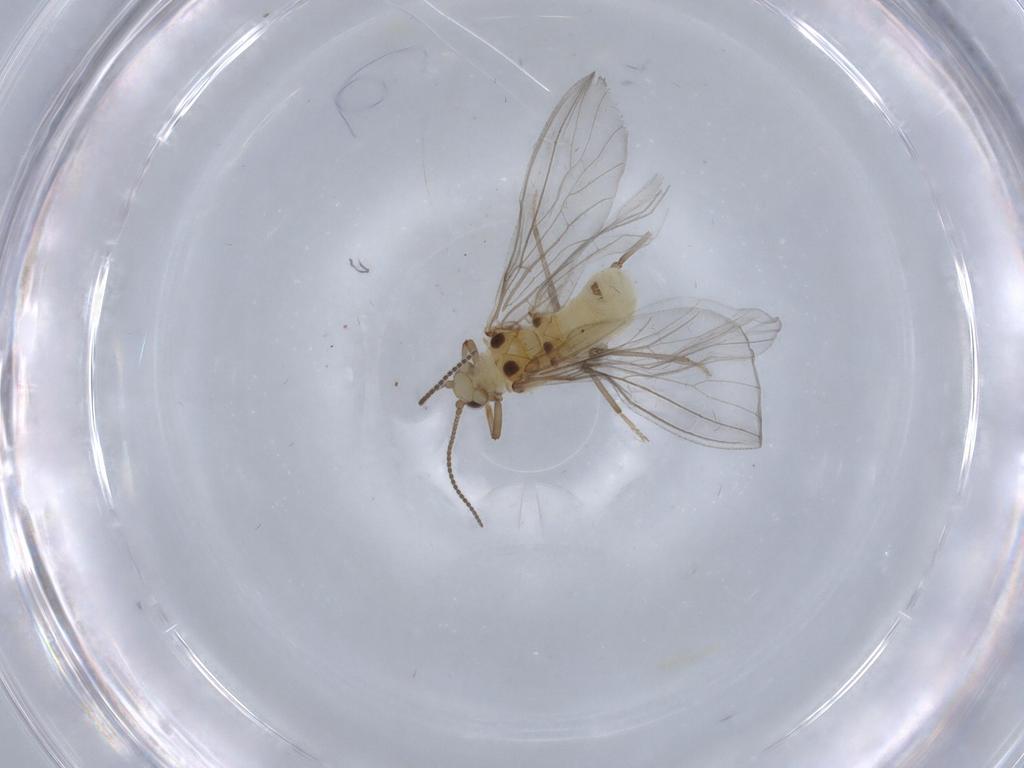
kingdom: Animalia
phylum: Arthropoda
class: Insecta
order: Neuroptera
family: Coniopterygidae
